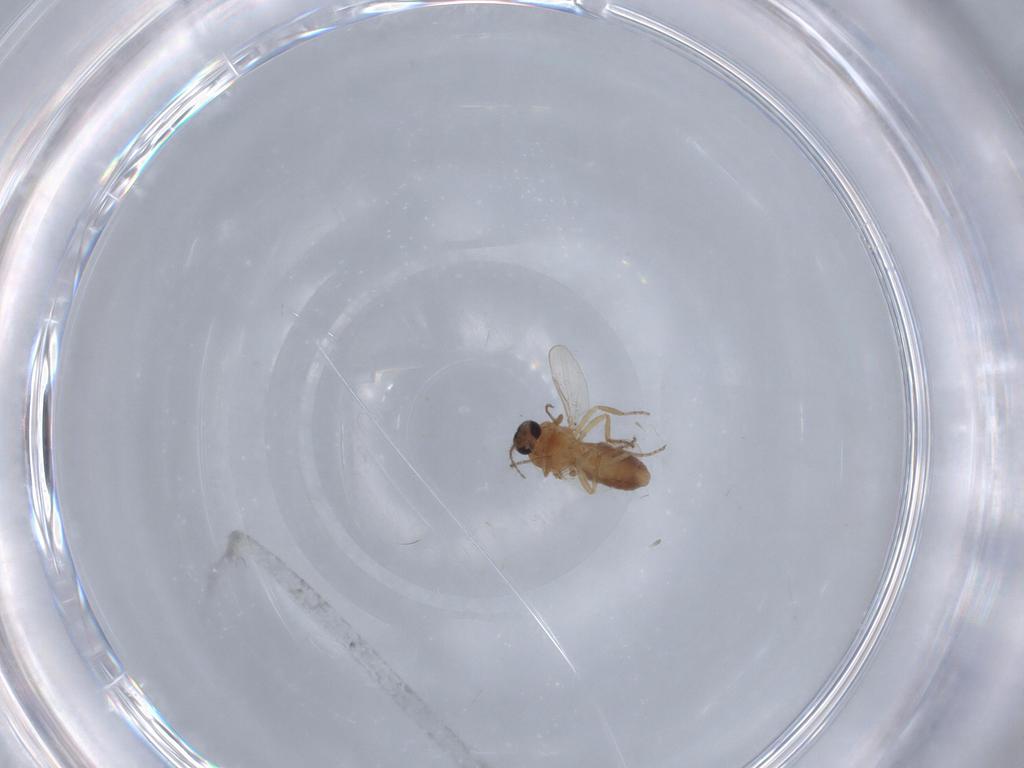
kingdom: Animalia
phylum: Arthropoda
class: Insecta
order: Diptera
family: Ceratopogonidae
